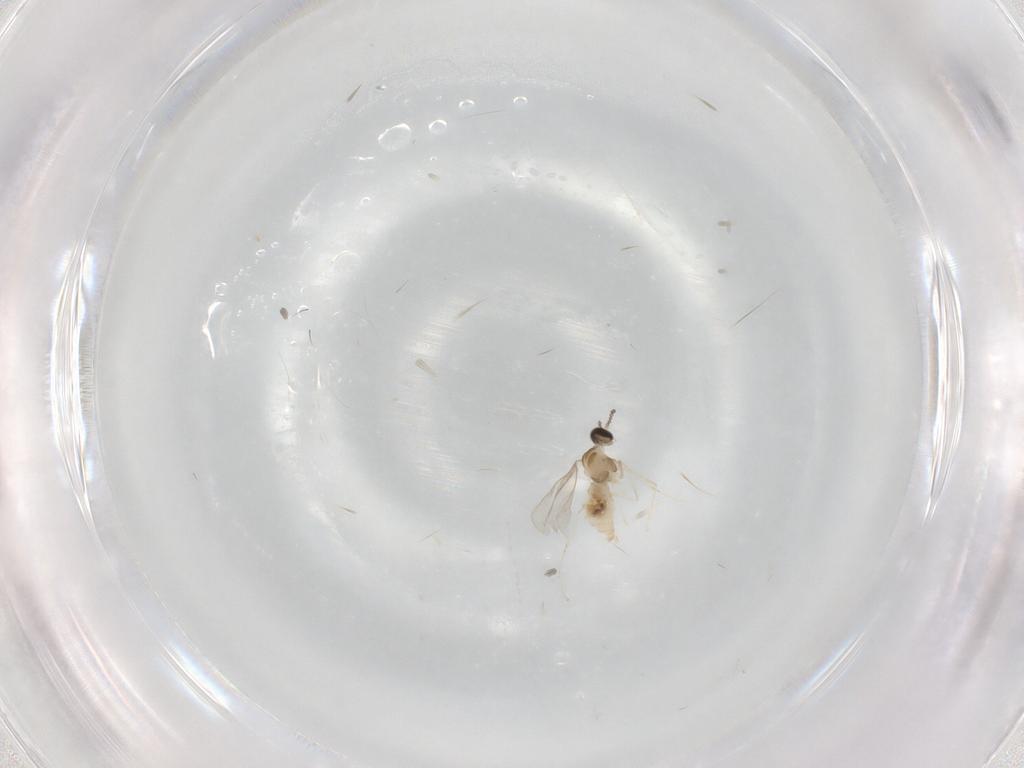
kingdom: Animalia
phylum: Arthropoda
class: Insecta
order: Diptera
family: Cecidomyiidae
